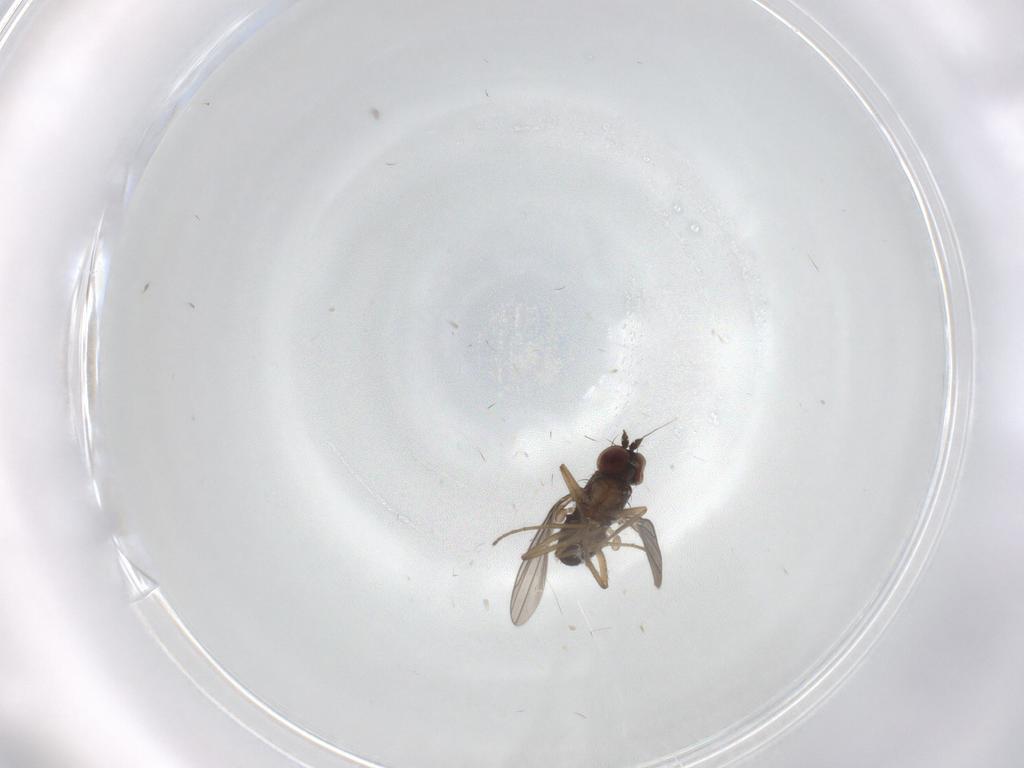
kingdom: Animalia
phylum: Arthropoda
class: Insecta
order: Diptera
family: Dolichopodidae
